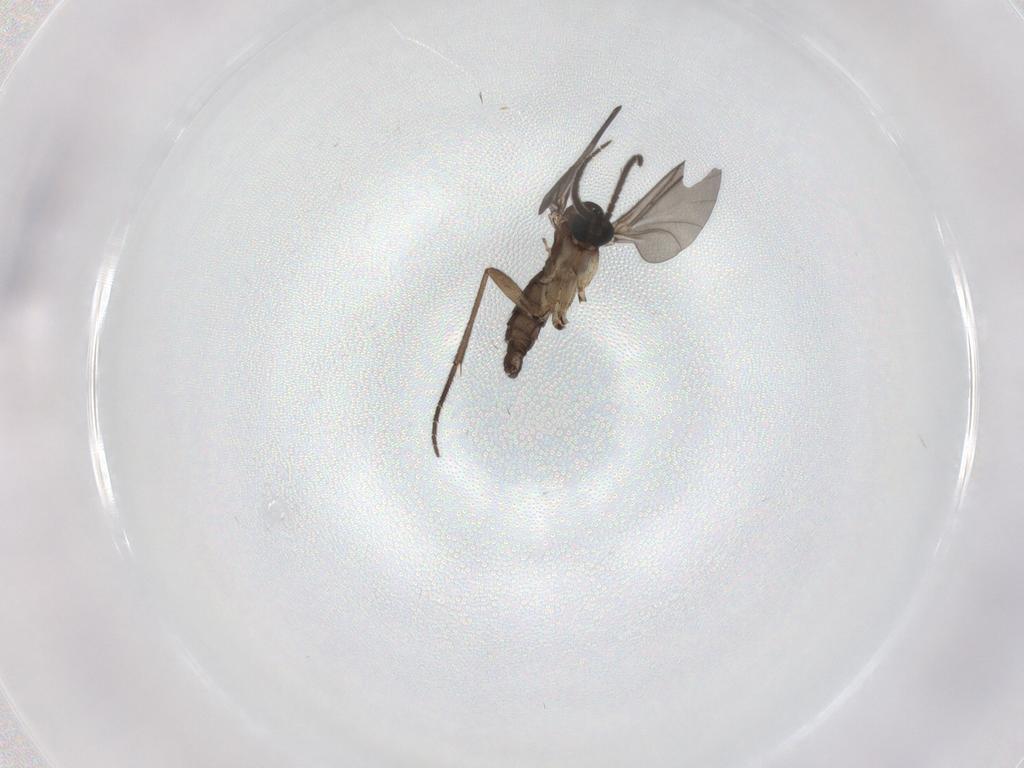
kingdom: Animalia
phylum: Arthropoda
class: Insecta
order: Diptera
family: Sciaridae
